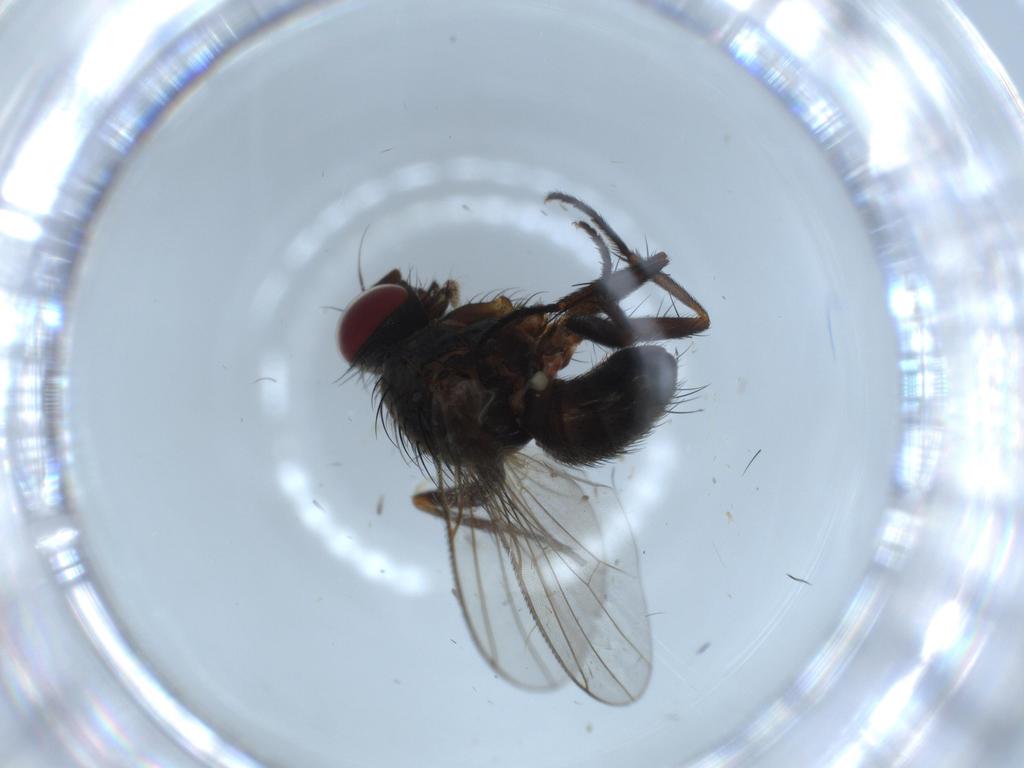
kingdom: Animalia
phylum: Arthropoda
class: Insecta
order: Diptera
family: Muscidae
